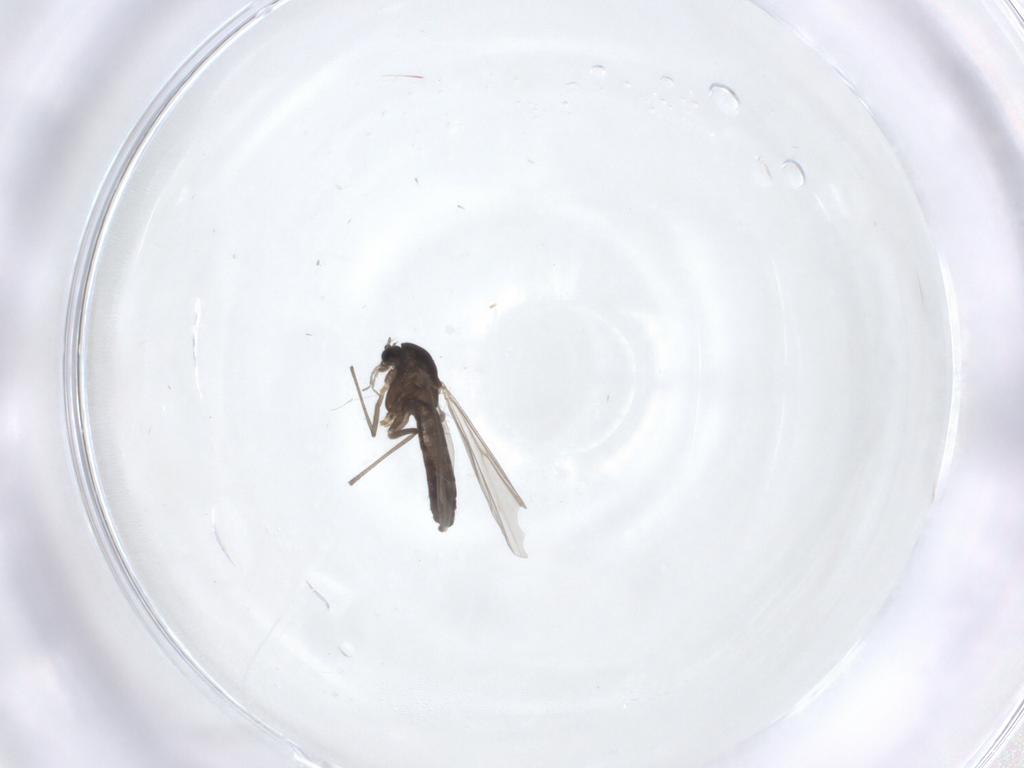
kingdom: Animalia
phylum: Arthropoda
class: Insecta
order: Diptera
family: Chironomidae
